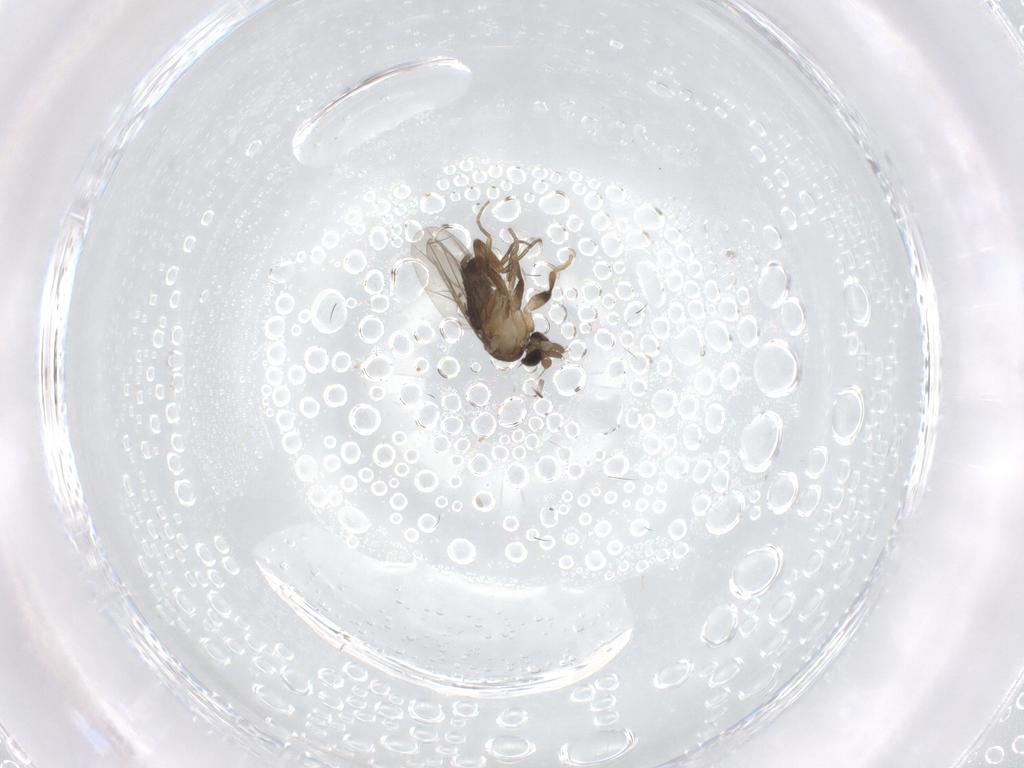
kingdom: Animalia
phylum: Arthropoda
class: Insecta
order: Diptera
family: Phoridae
